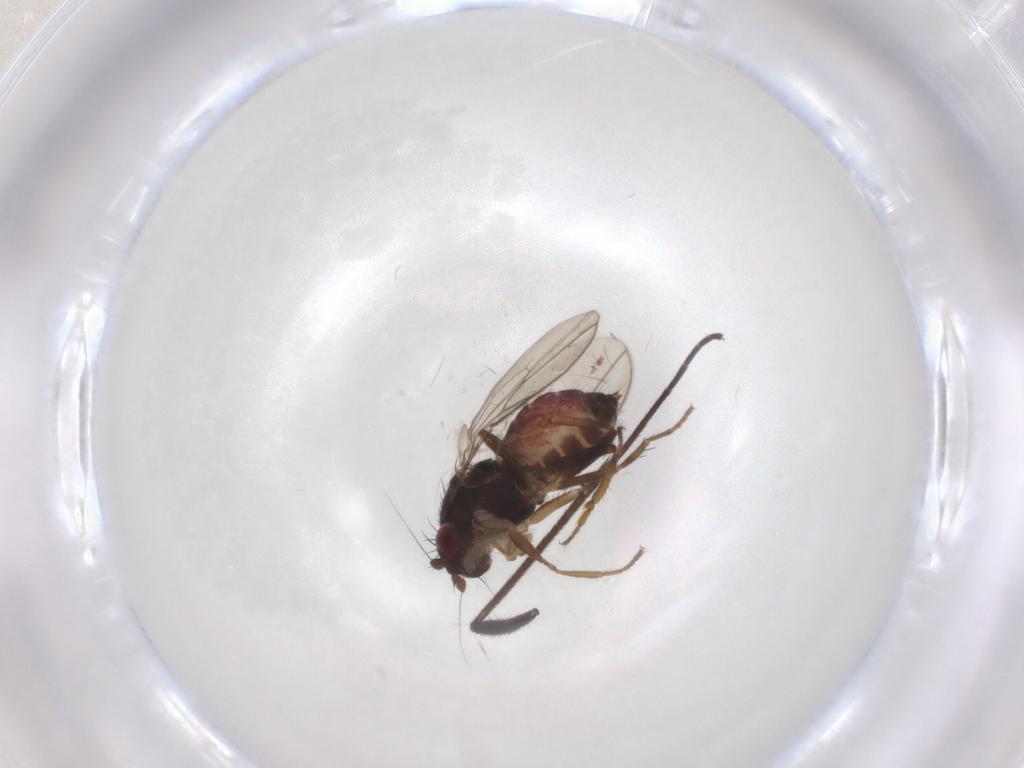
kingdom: Animalia
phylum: Arthropoda
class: Insecta
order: Diptera
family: Sphaeroceridae
